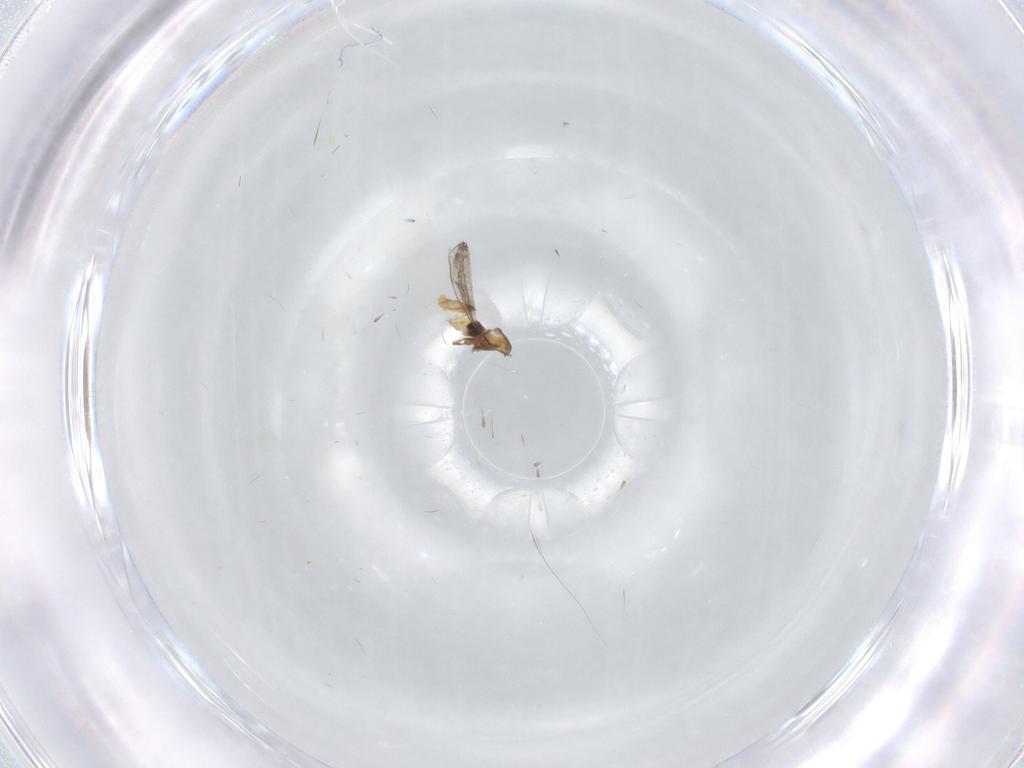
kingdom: Animalia
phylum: Arthropoda
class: Insecta
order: Diptera
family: Cecidomyiidae
